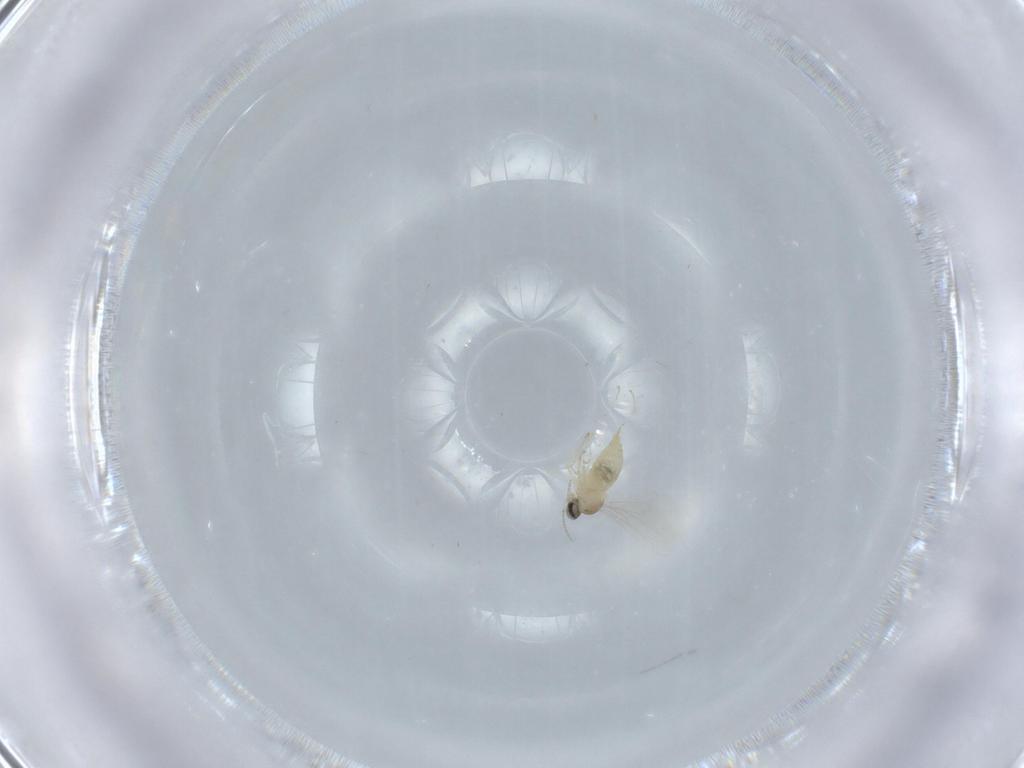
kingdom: Animalia
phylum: Arthropoda
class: Insecta
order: Diptera
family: Cecidomyiidae
